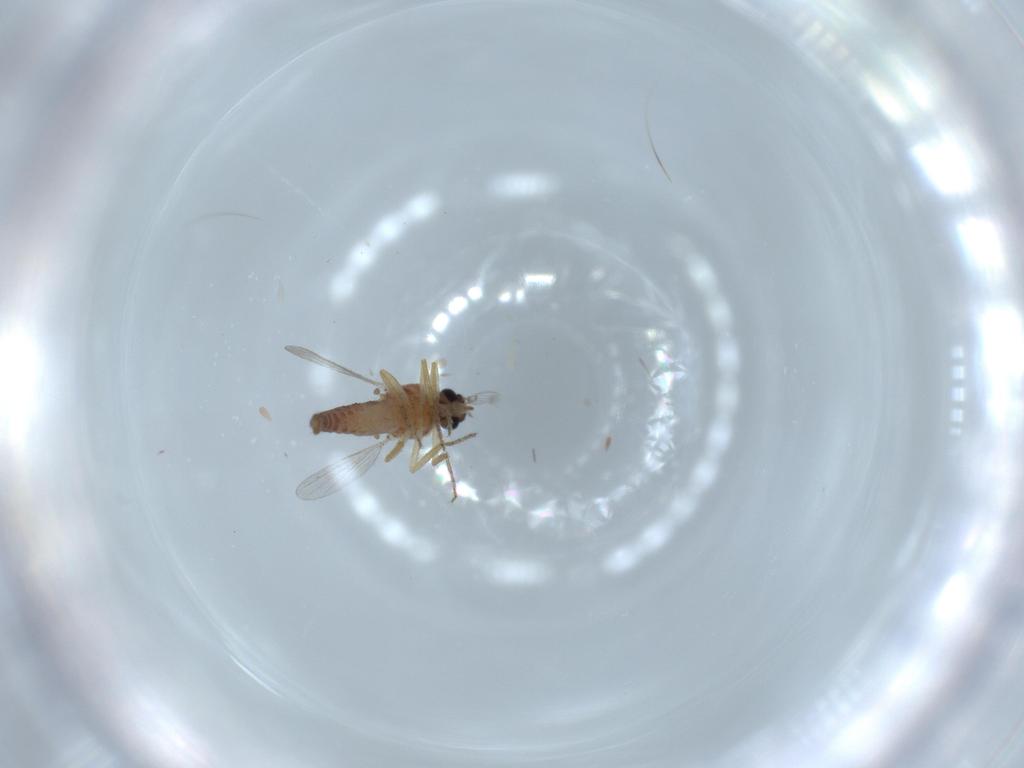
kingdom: Animalia
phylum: Arthropoda
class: Insecta
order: Diptera
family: Ceratopogonidae
